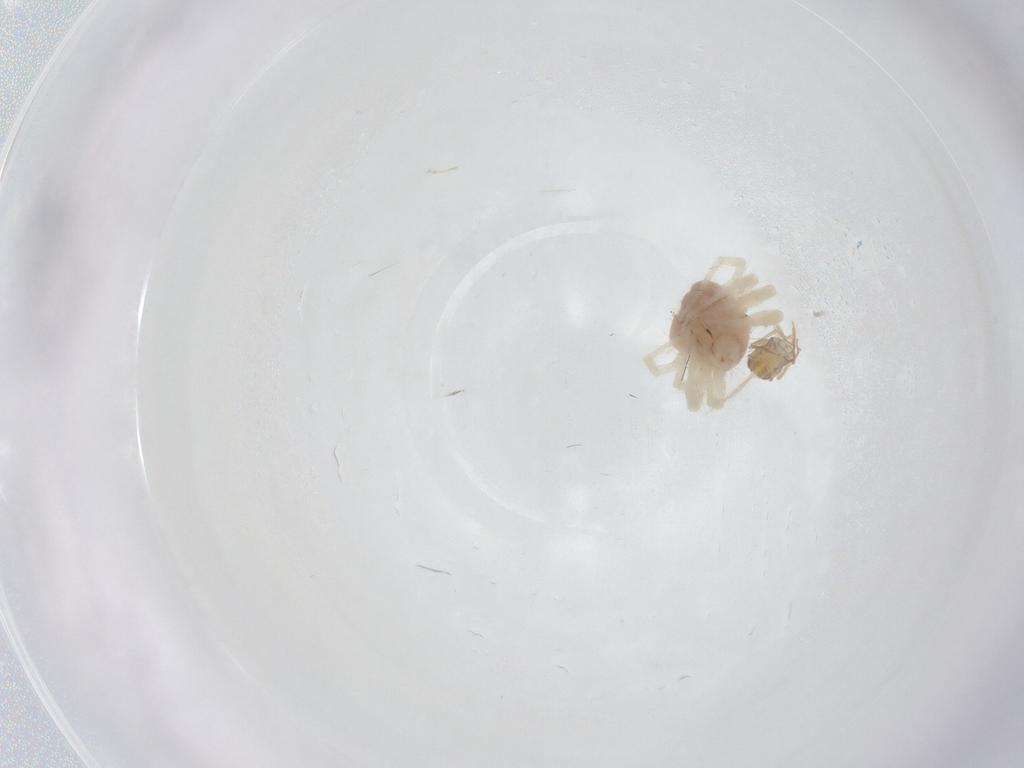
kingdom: Animalia
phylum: Arthropoda
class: Arachnida
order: Trombidiformes
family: Anystidae
